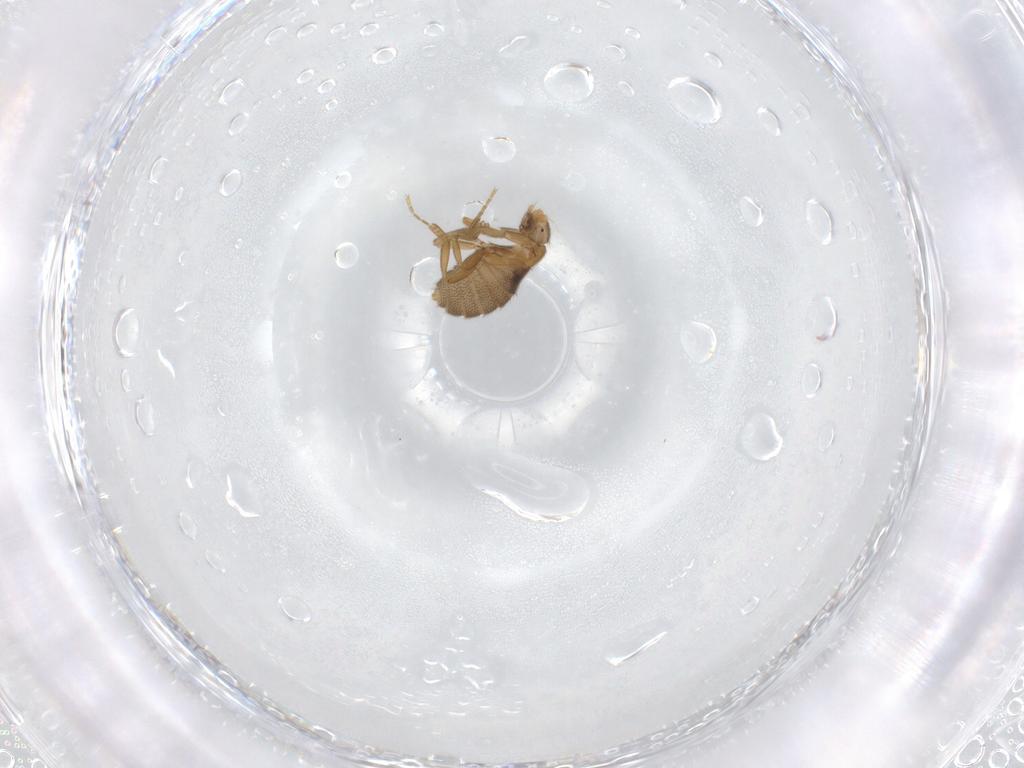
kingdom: Animalia
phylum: Arthropoda
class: Insecta
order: Diptera
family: Phoridae
